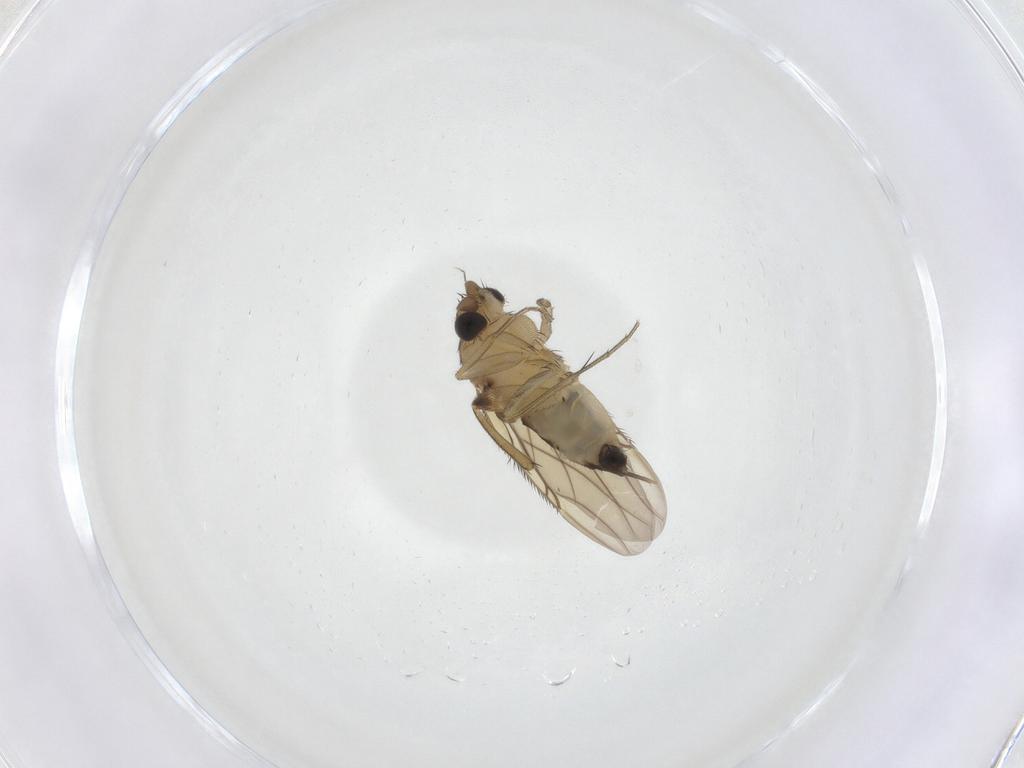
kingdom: Animalia
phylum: Arthropoda
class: Insecta
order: Diptera
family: Phoridae
